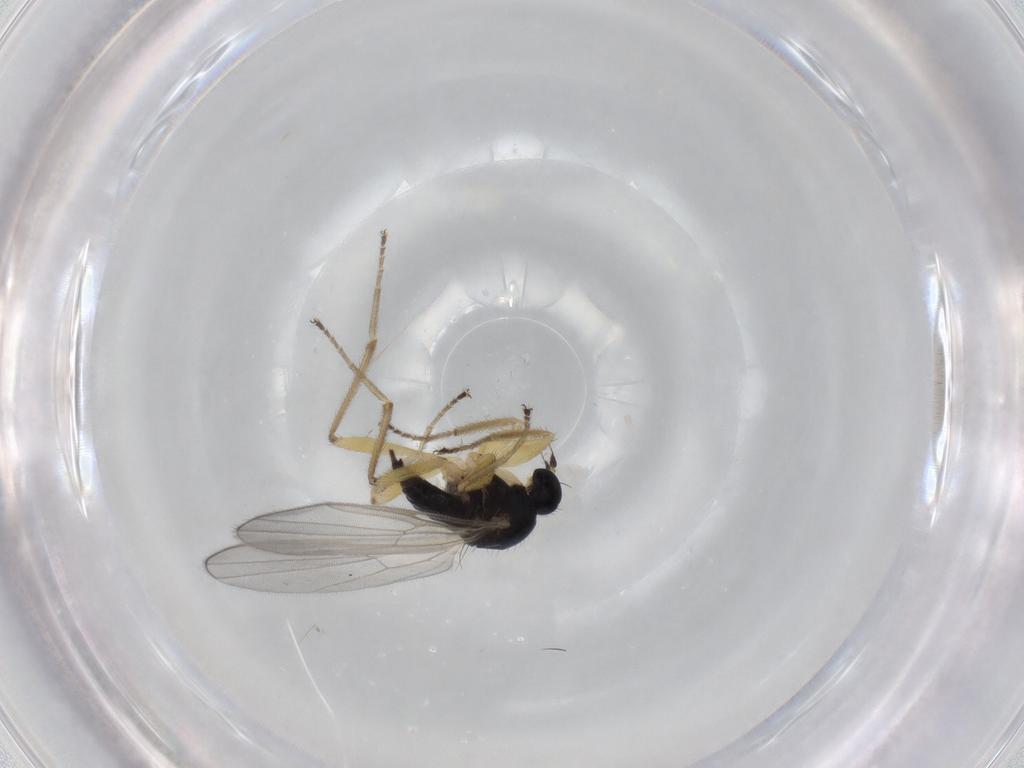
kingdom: Animalia
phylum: Arthropoda
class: Insecta
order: Diptera
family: Hybotidae
